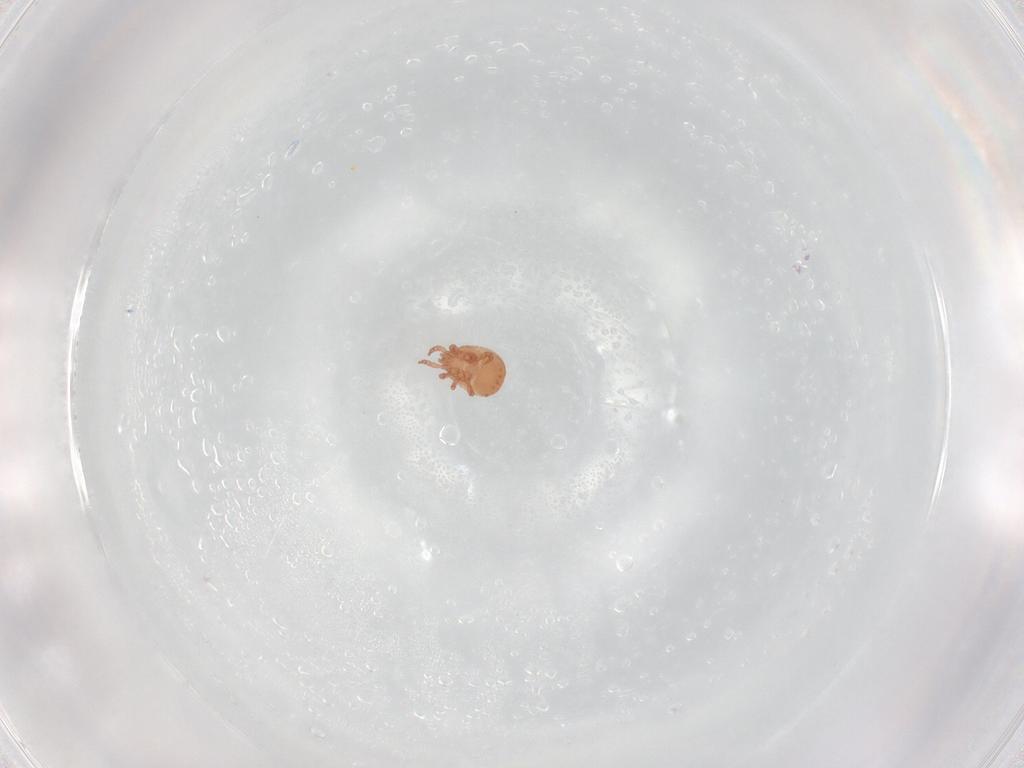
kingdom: Animalia
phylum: Arthropoda
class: Arachnida
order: Mesostigmata
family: Zerconidae
